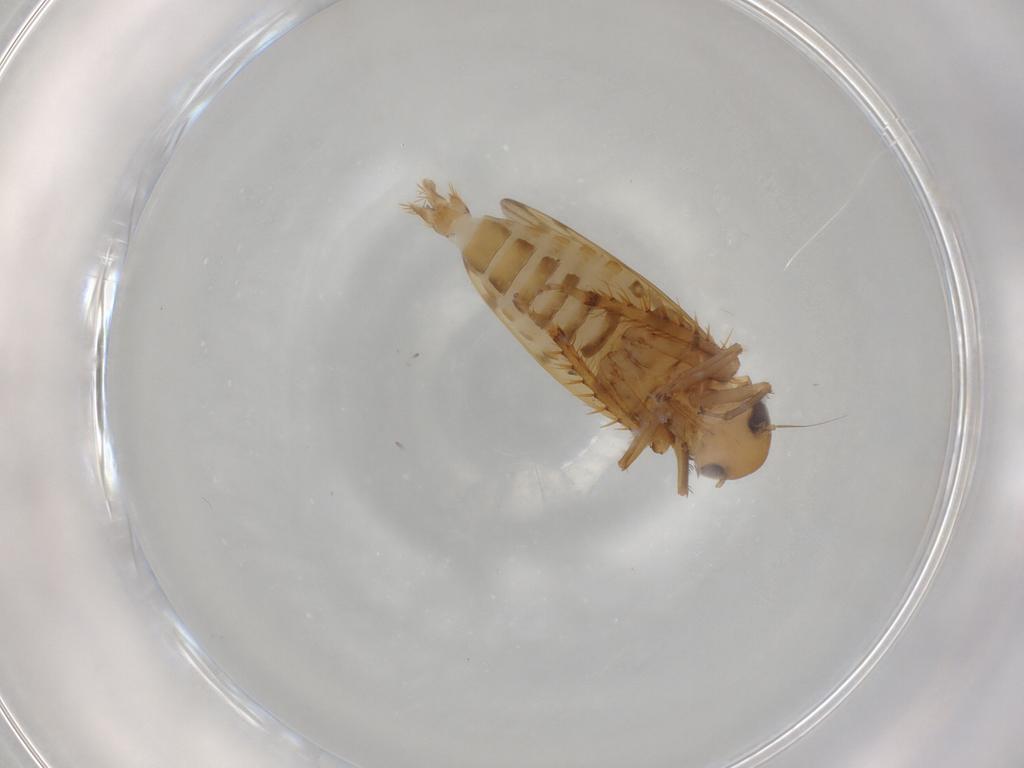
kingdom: Animalia
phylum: Arthropoda
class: Insecta
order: Hemiptera
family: Cicadellidae
